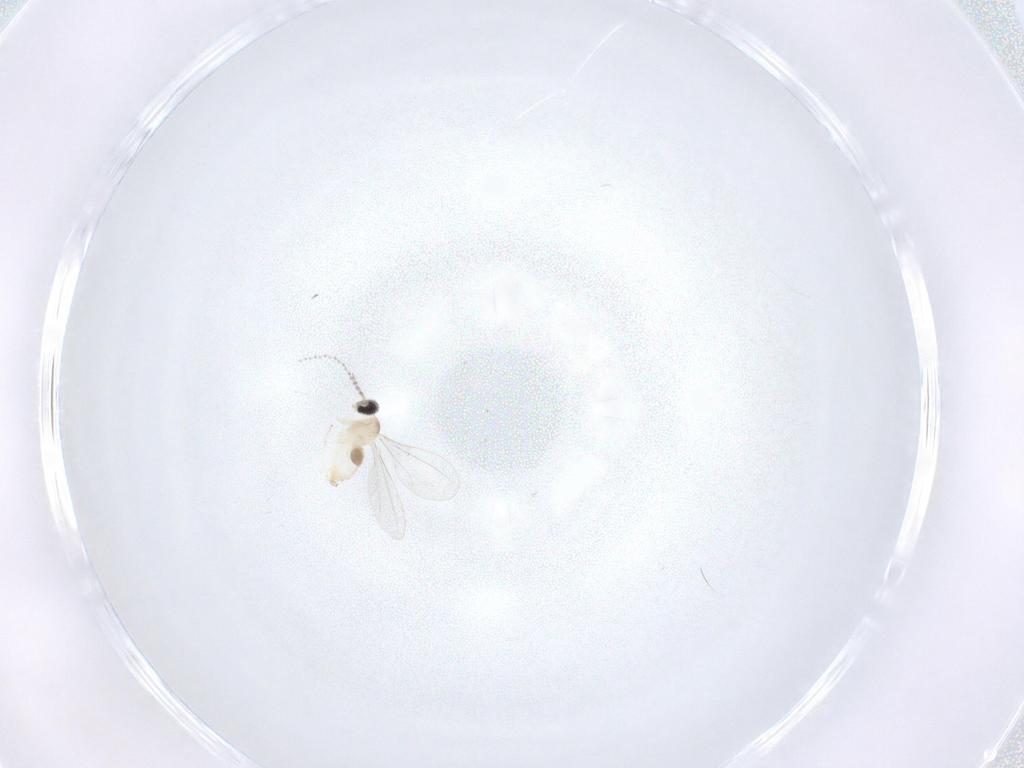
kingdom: Animalia
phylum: Arthropoda
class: Insecta
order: Diptera
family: Cecidomyiidae
